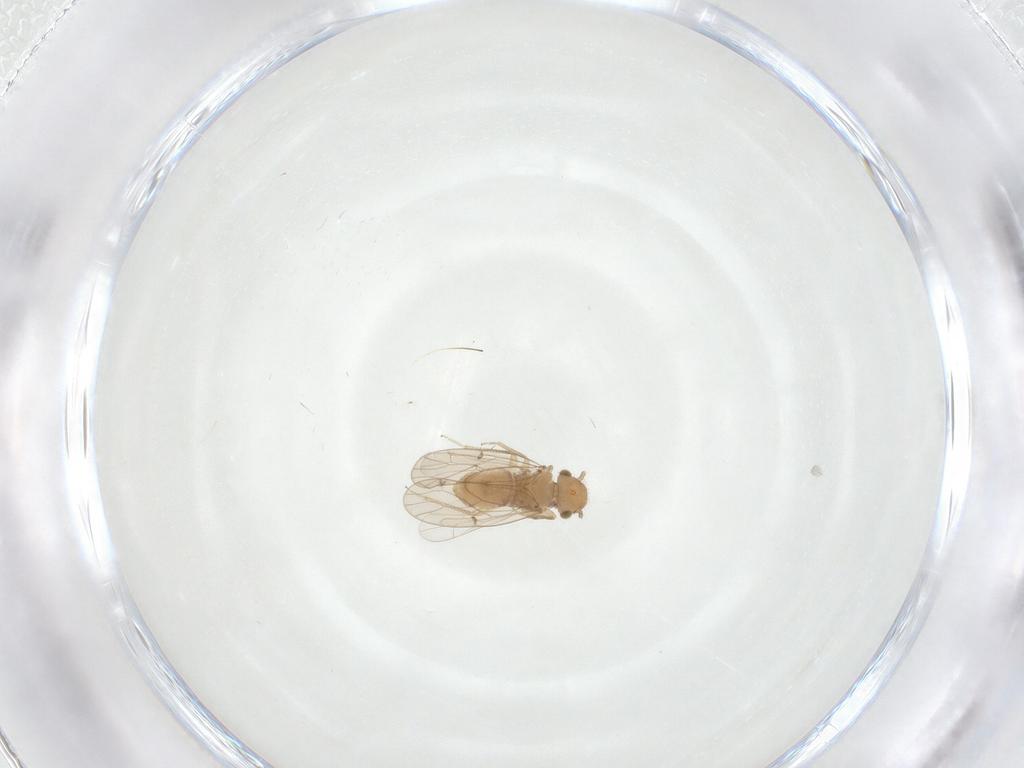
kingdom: Animalia
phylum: Arthropoda
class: Insecta
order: Psocodea
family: Ectopsocidae
